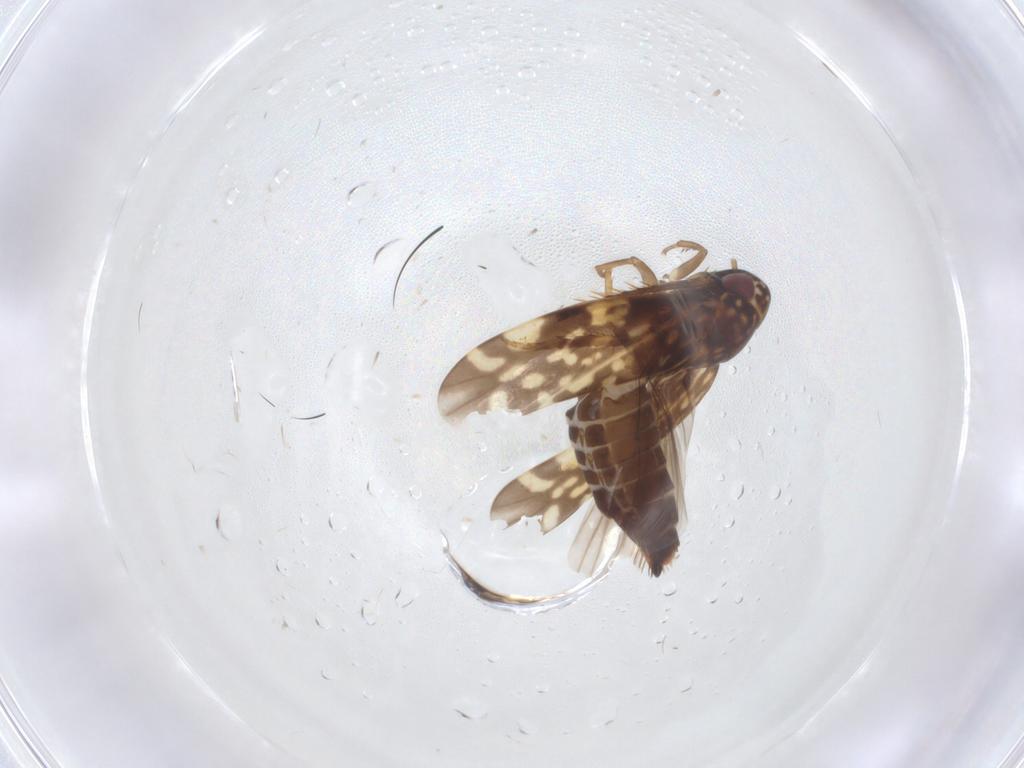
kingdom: Animalia
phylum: Arthropoda
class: Insecta
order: Hemiptera
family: Cicadellidae
